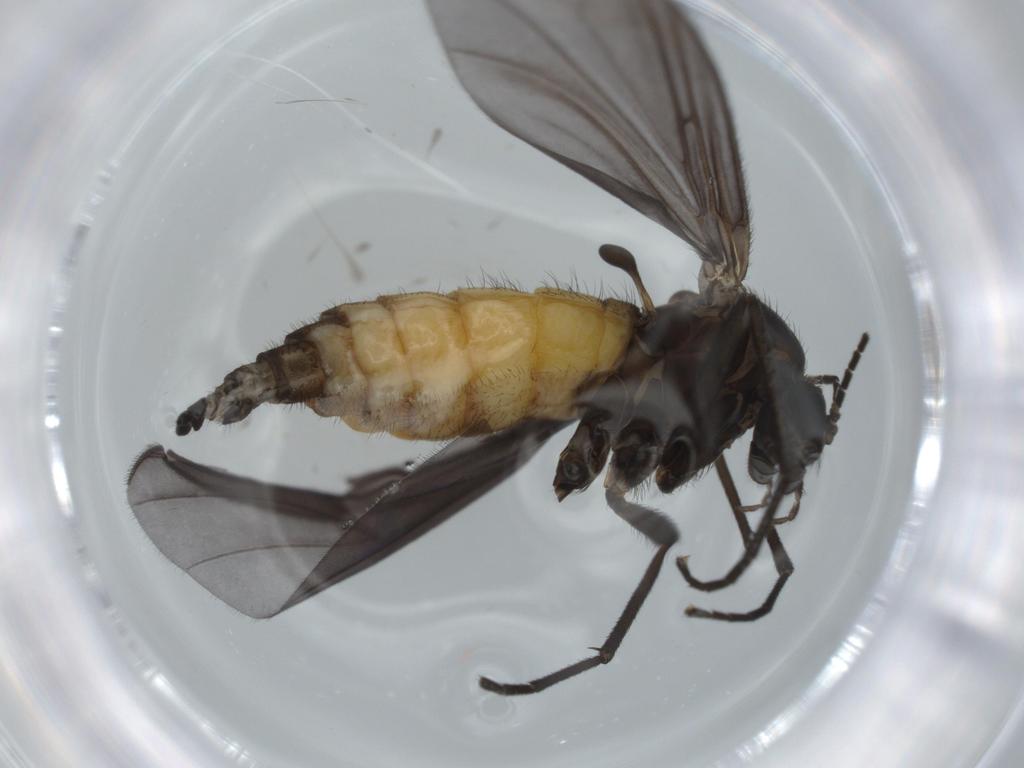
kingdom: Animalia
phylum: Arthropoda
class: Insecta
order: Diptera
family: Sciaridae
